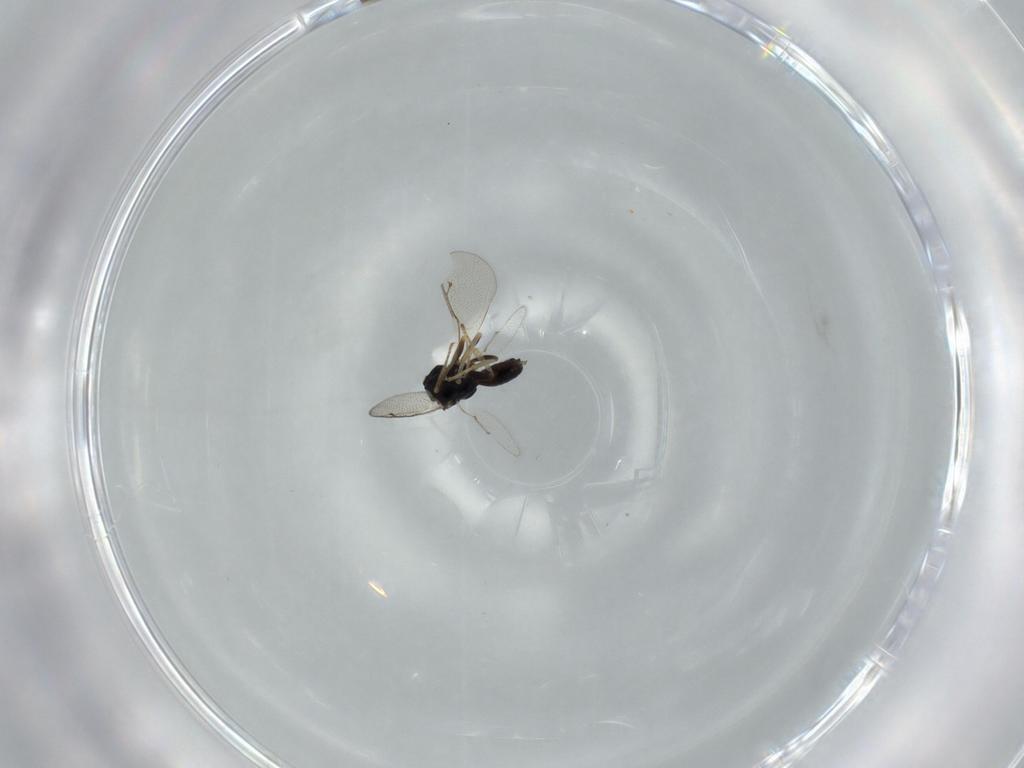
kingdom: Animalia
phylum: Arthropoda
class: Insecta
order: Hymenoptera
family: Pteromalidae
